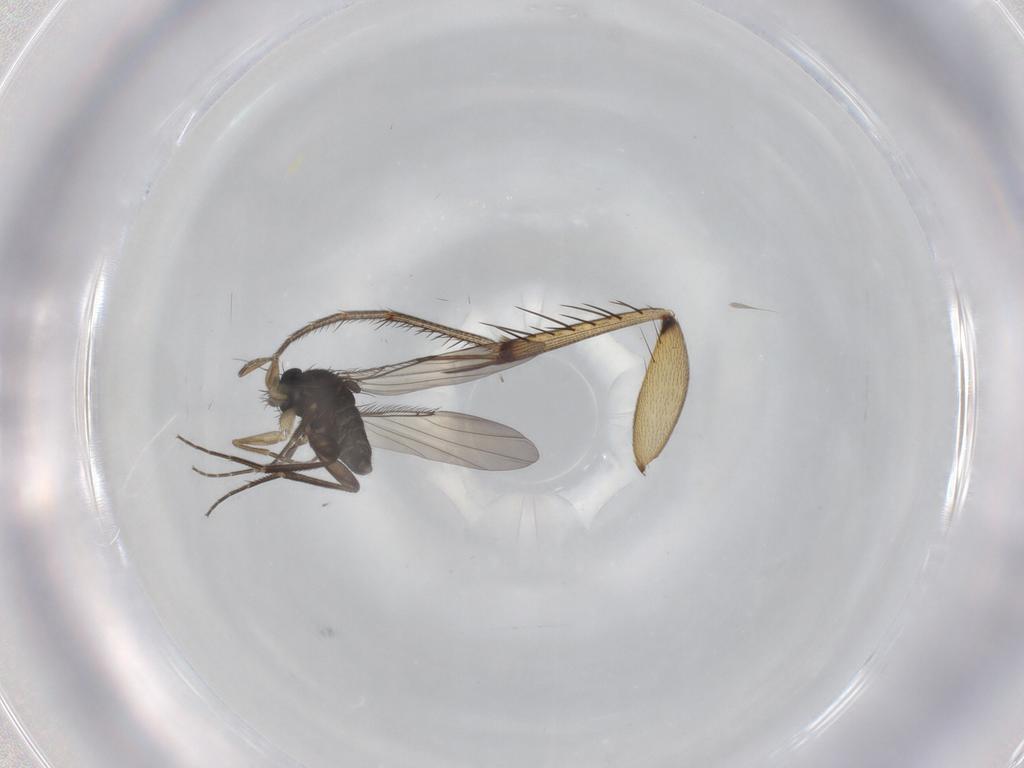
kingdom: Animalia
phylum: Arthropoda
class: Insecta
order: Diptera
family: Phoridae
